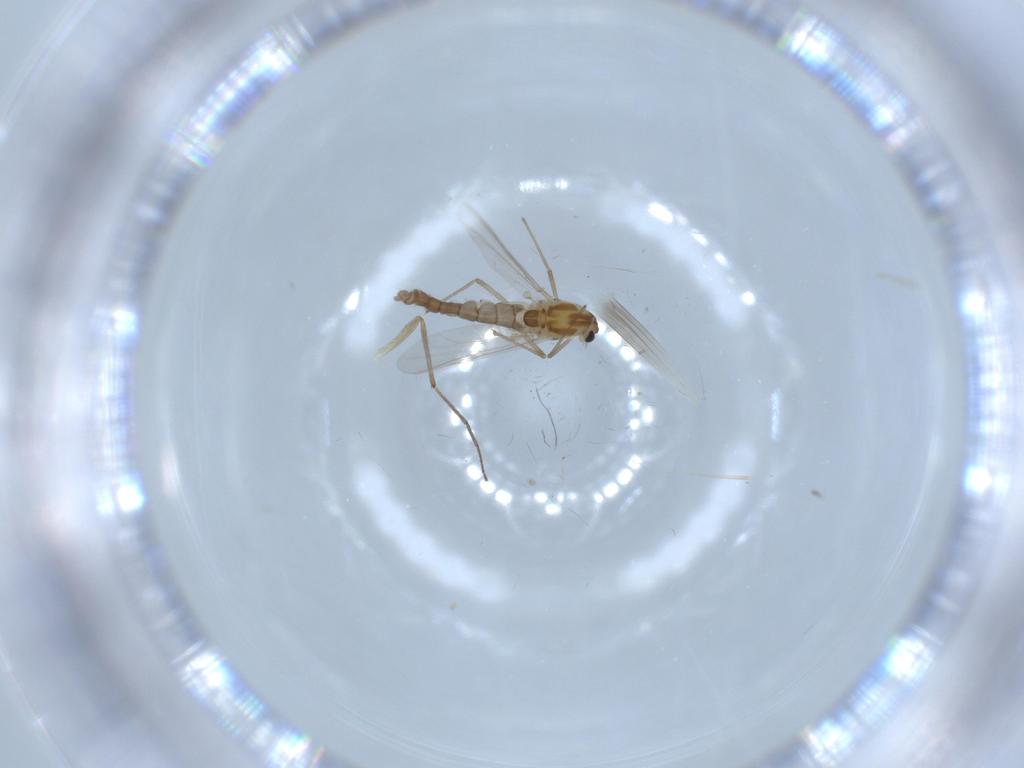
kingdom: Animalia
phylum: Arthropoda
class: Insecta
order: Diptera
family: Chironomidae
